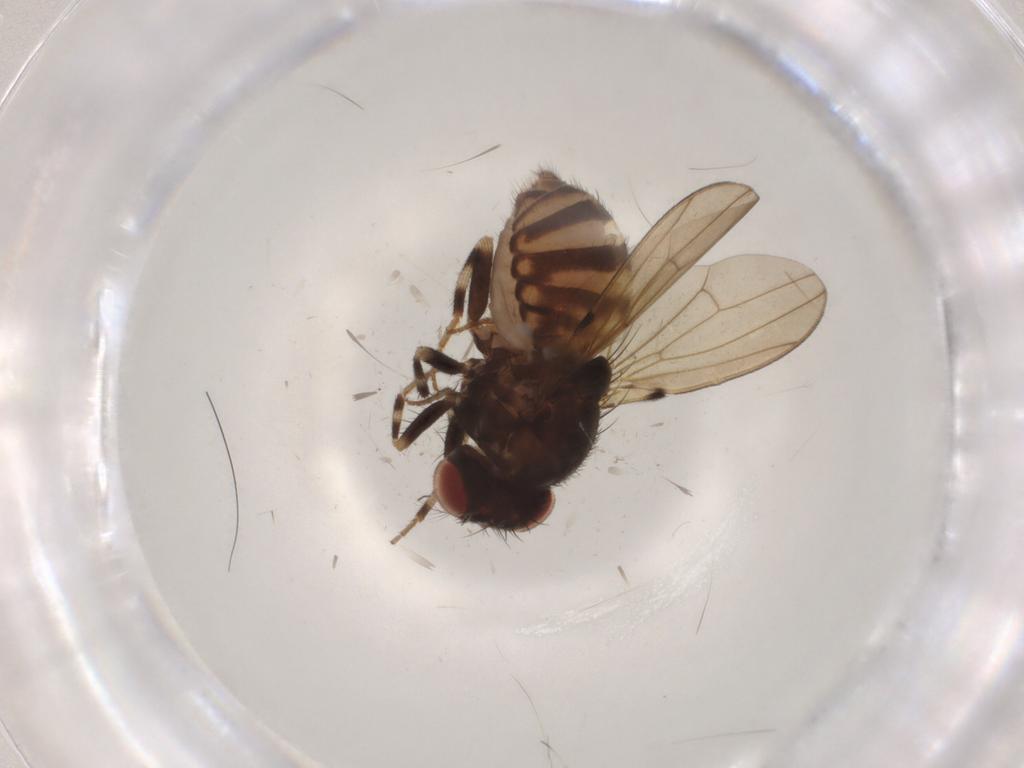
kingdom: Animalia
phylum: Arthropoda
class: Insecta
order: Diptera
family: Drosophilidae
